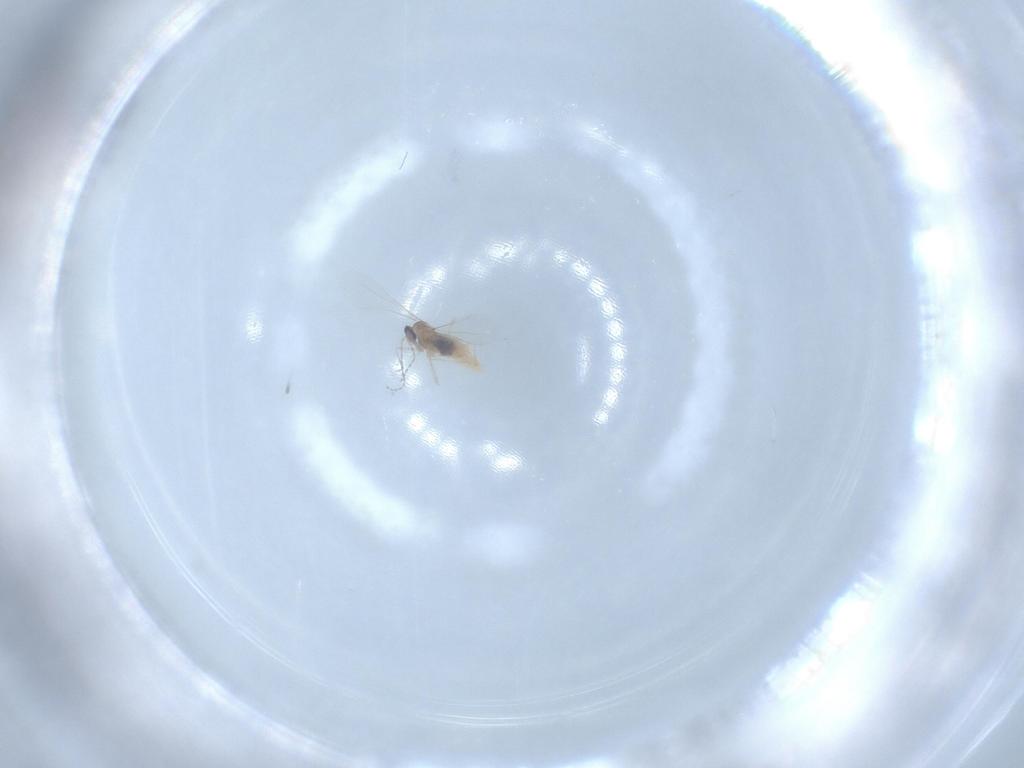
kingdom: Animalia
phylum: Arthropoda
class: Insecta
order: Diptera
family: Cecidomyiidae
